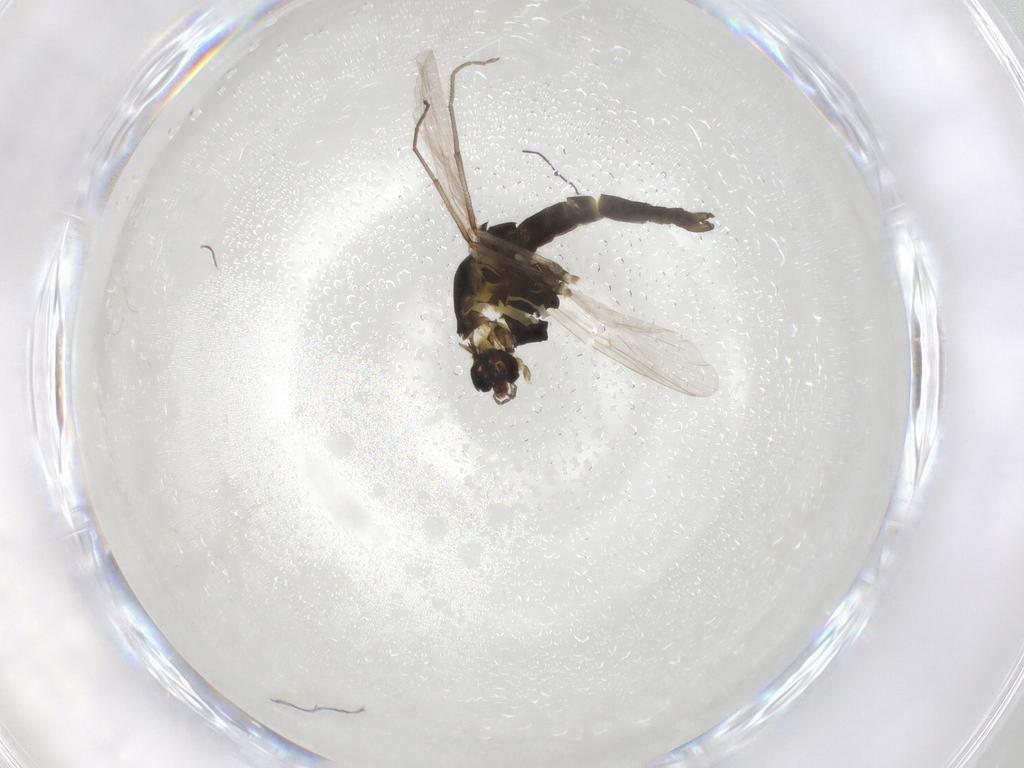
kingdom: Animalia
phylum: Arthropoda
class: Insecta
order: Diptera
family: Chironomidae
